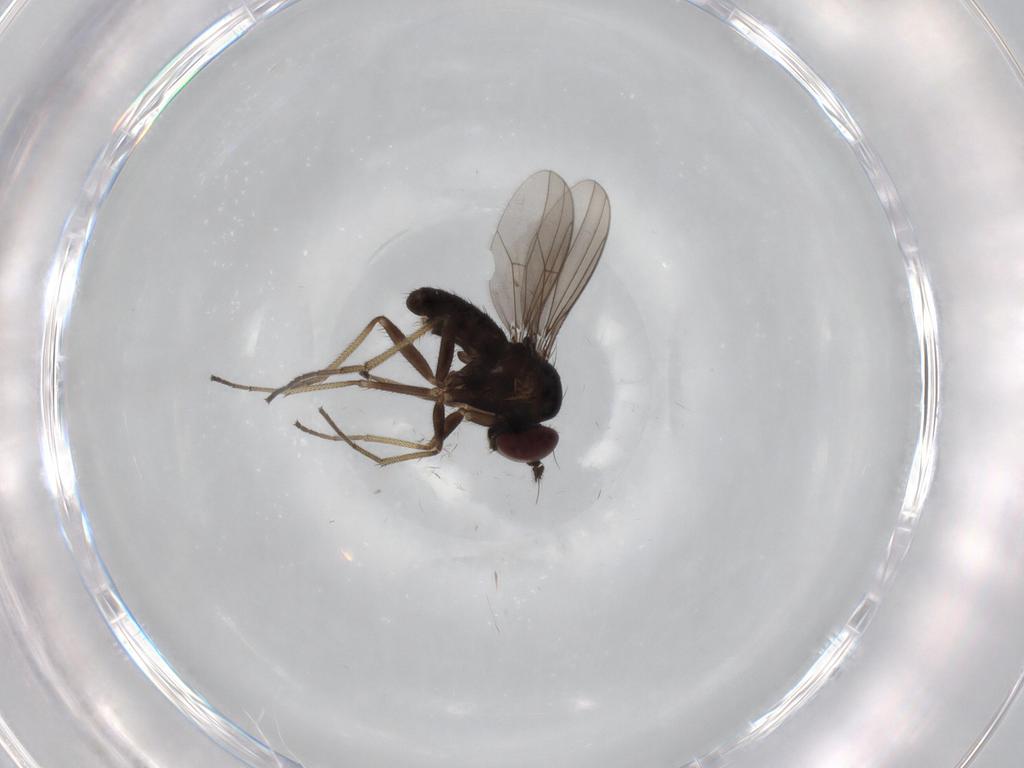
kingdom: Animalia
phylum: Arthropoda
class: Insecta
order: Diptera
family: Dolichopodidae
